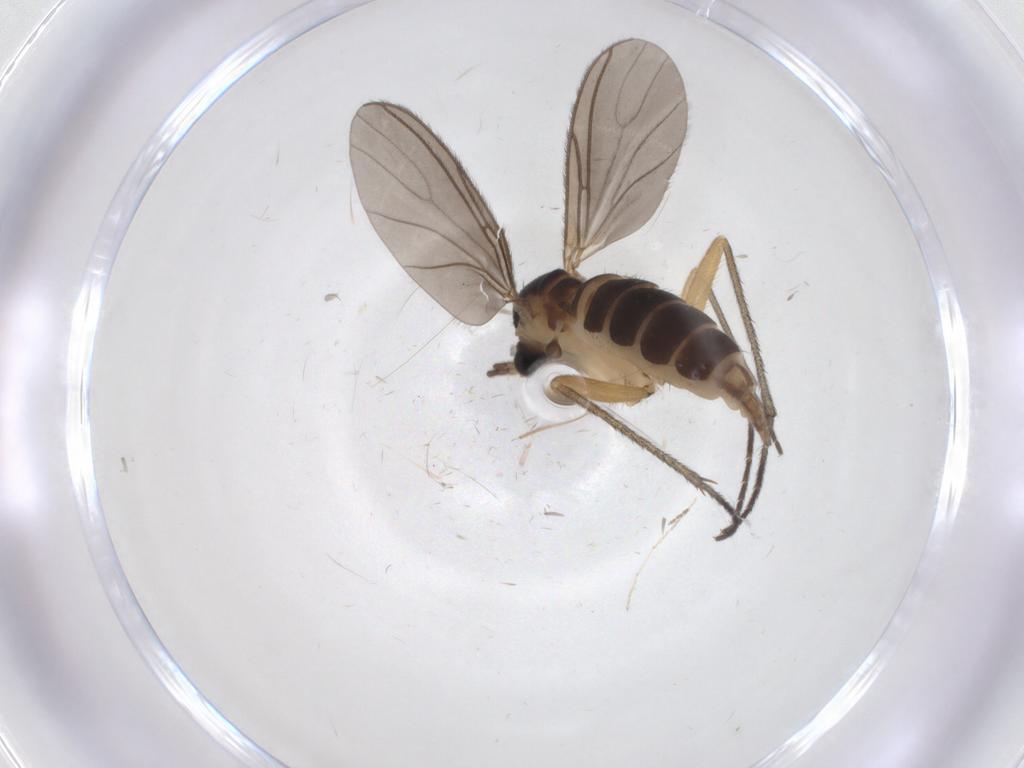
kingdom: Animalia
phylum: Arthropoda
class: Insecta
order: Diptera
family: Sciaridae
